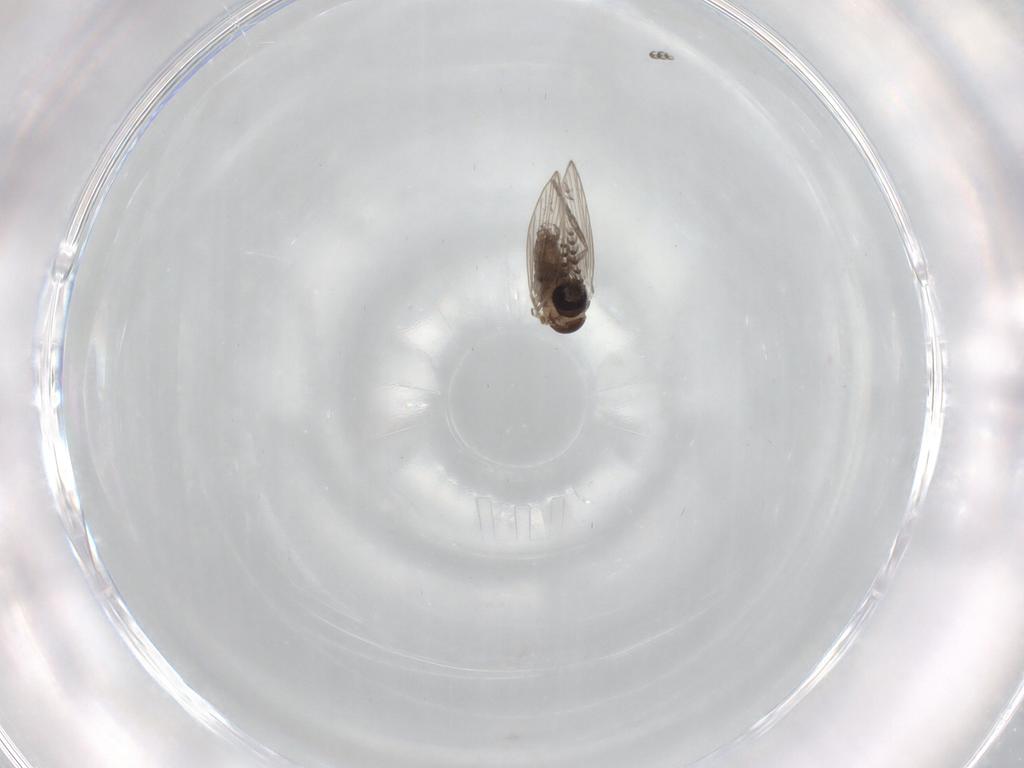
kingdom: Animalia
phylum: Arthropoda
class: Insecta
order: Diptera
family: Psychodidae
